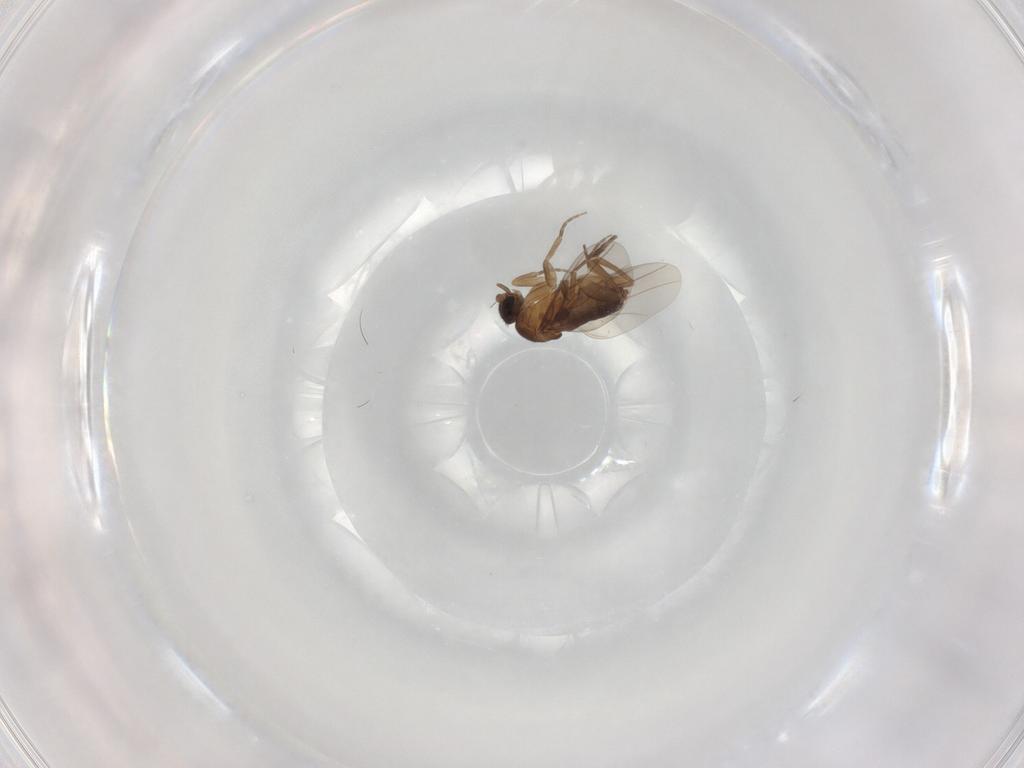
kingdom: Animalia
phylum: Arthropoda
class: Insecta
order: Diptera
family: Phoridae
